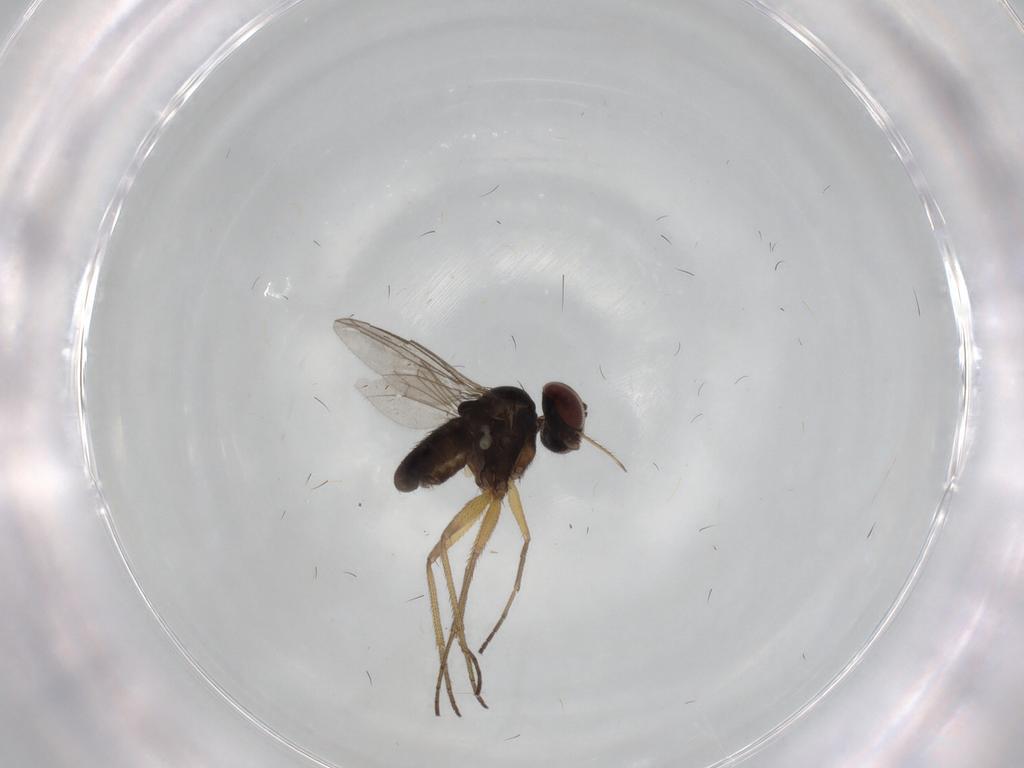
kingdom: Animalia
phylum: Arthropoda
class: Insecta
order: Diptera
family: Dolichopodidae
